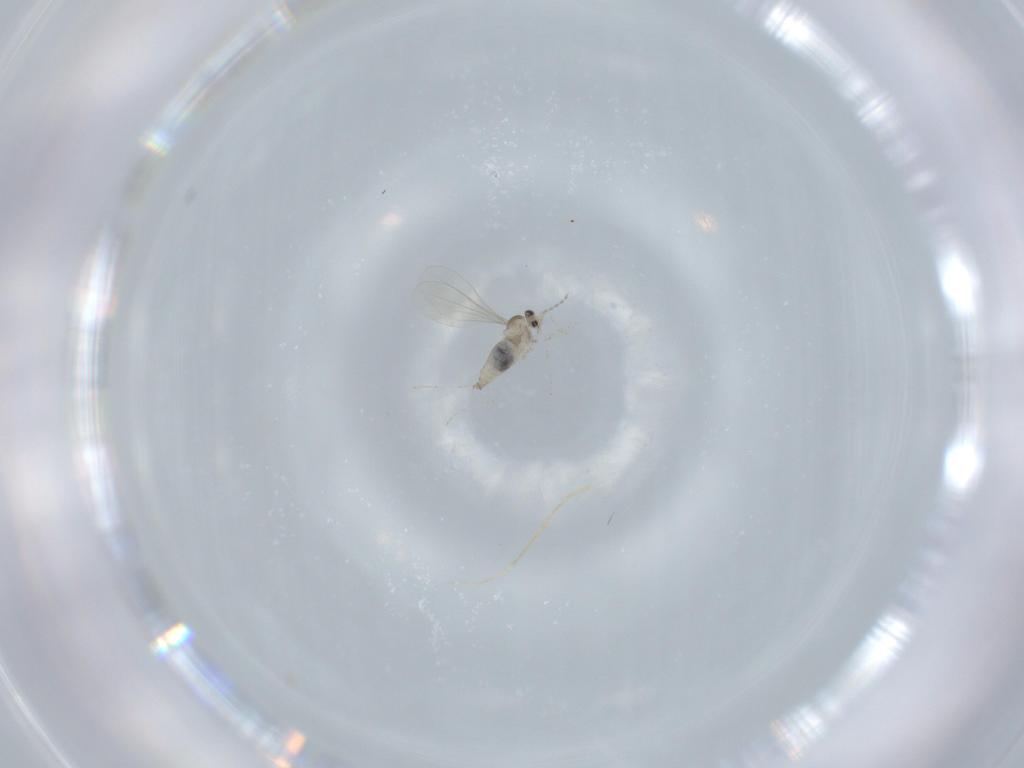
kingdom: Animalia
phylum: Arthropoda
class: Insecta
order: Diptera
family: Cecidomyiidae
